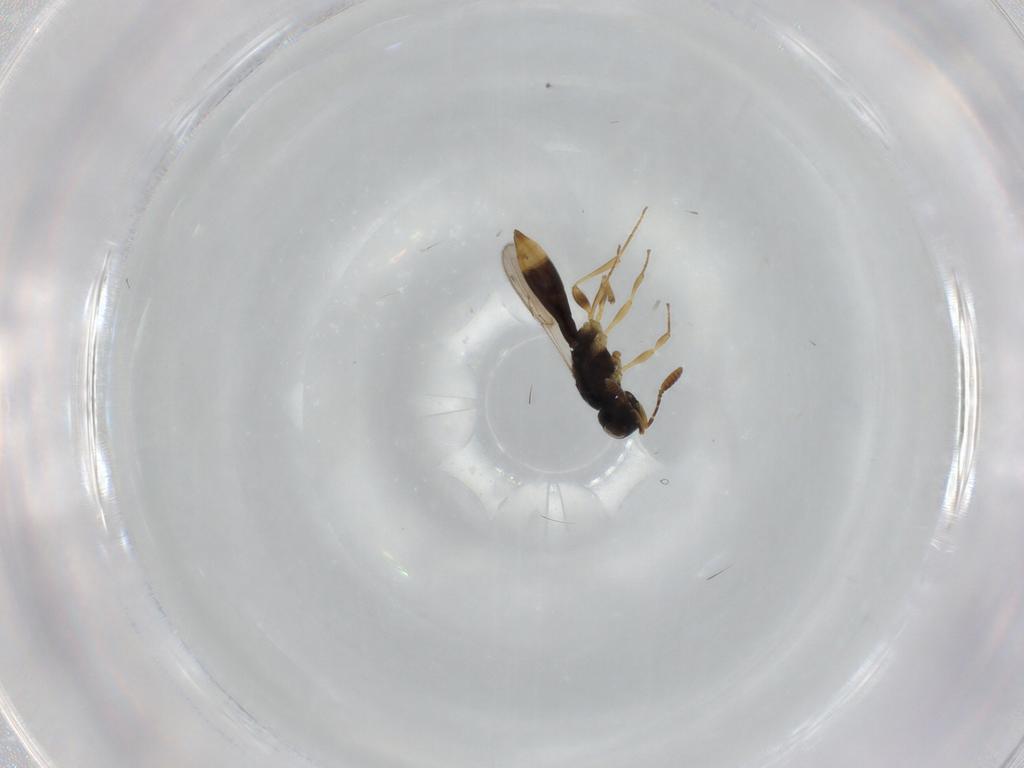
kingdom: Animalia
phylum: Arthropoda
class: Insecta
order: Hymenoptera
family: Scelionidae
